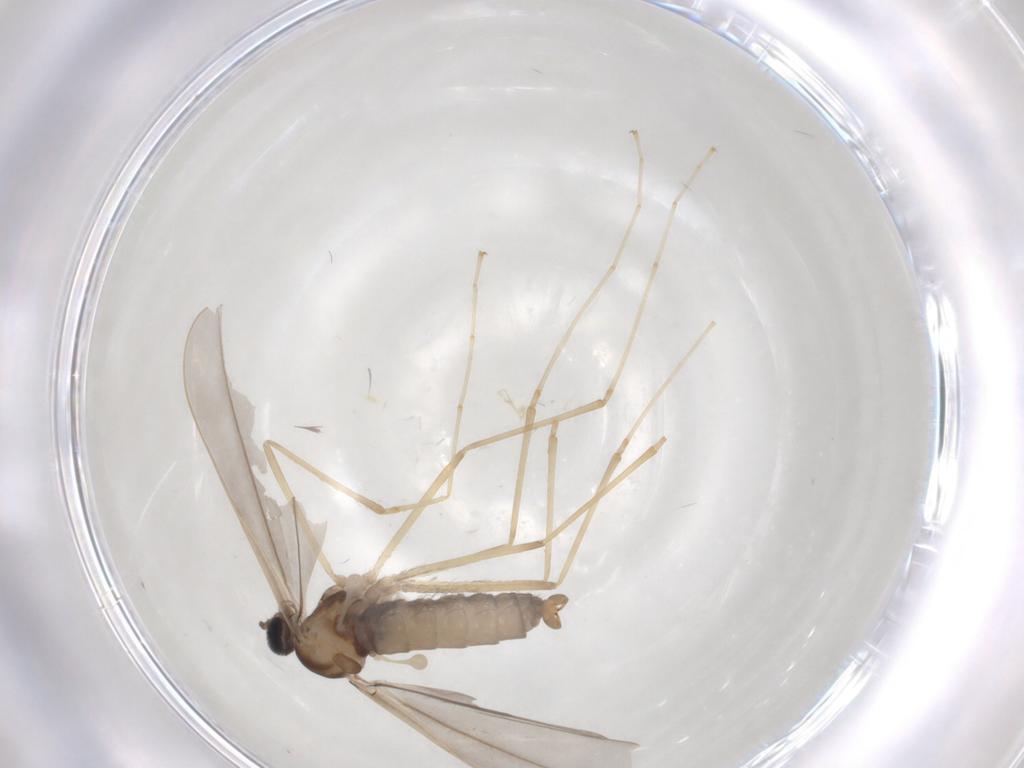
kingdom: Animalia
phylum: Arthropoda
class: Insecta
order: Diptera
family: Cecidomyiidae
